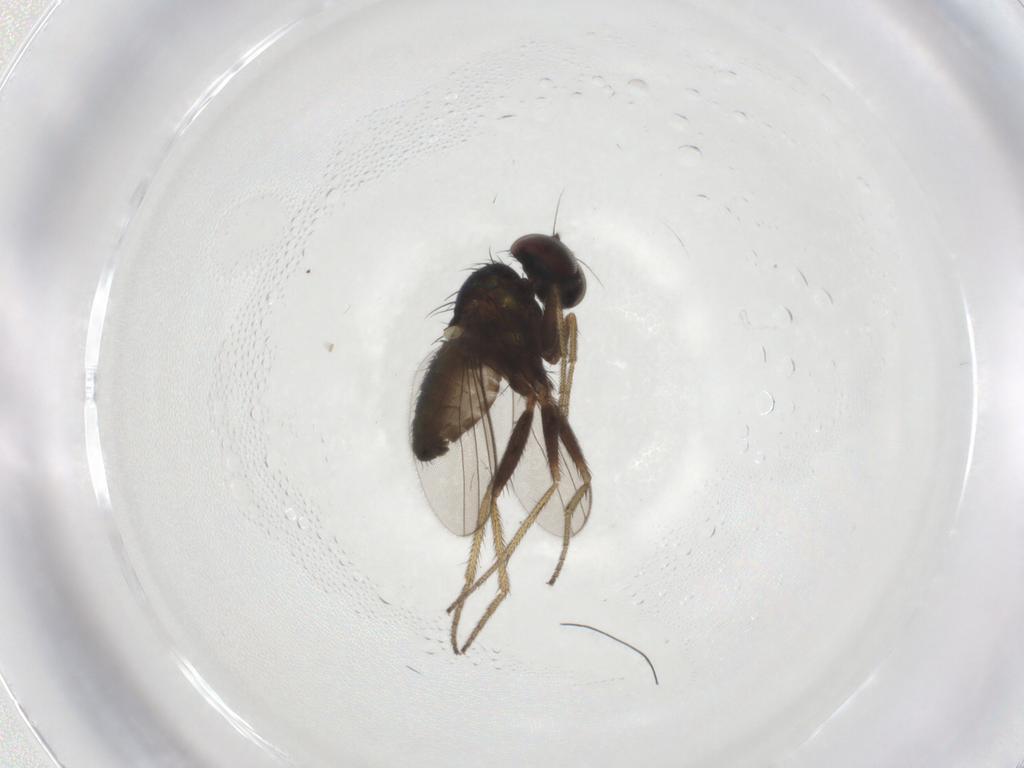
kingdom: Animalia
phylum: Arthropoda
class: Insecta
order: Diptera
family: Dolichopodidae
